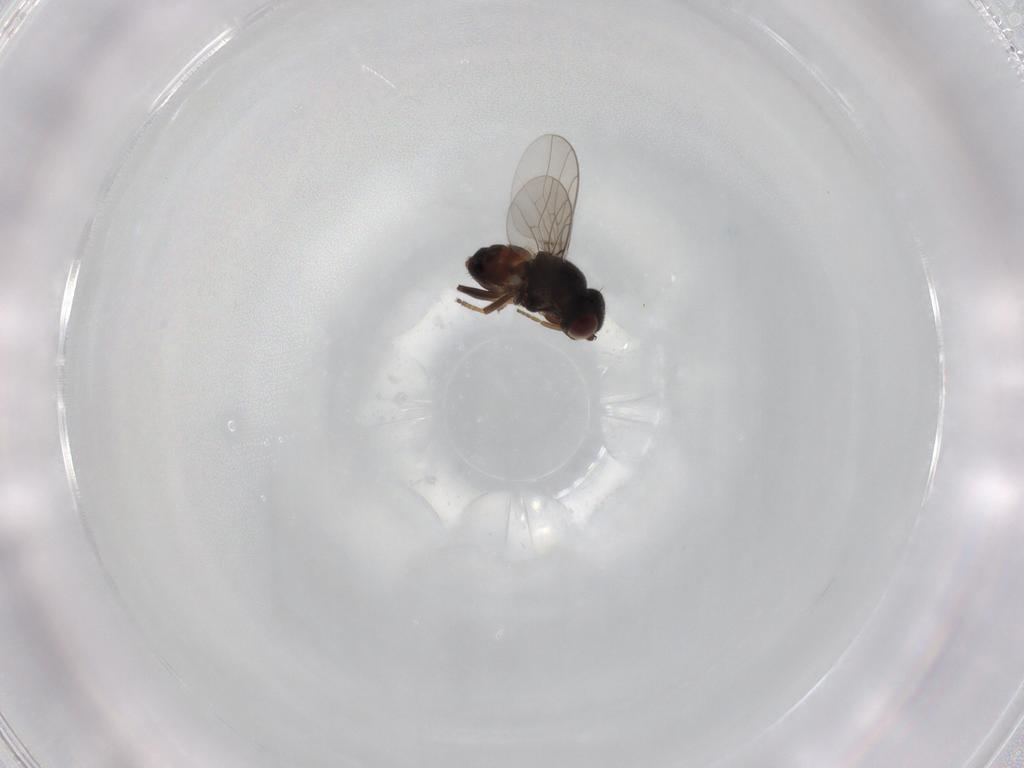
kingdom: Animalia
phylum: Arthropoda
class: Insecta
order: Diptera
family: Chloropidae
